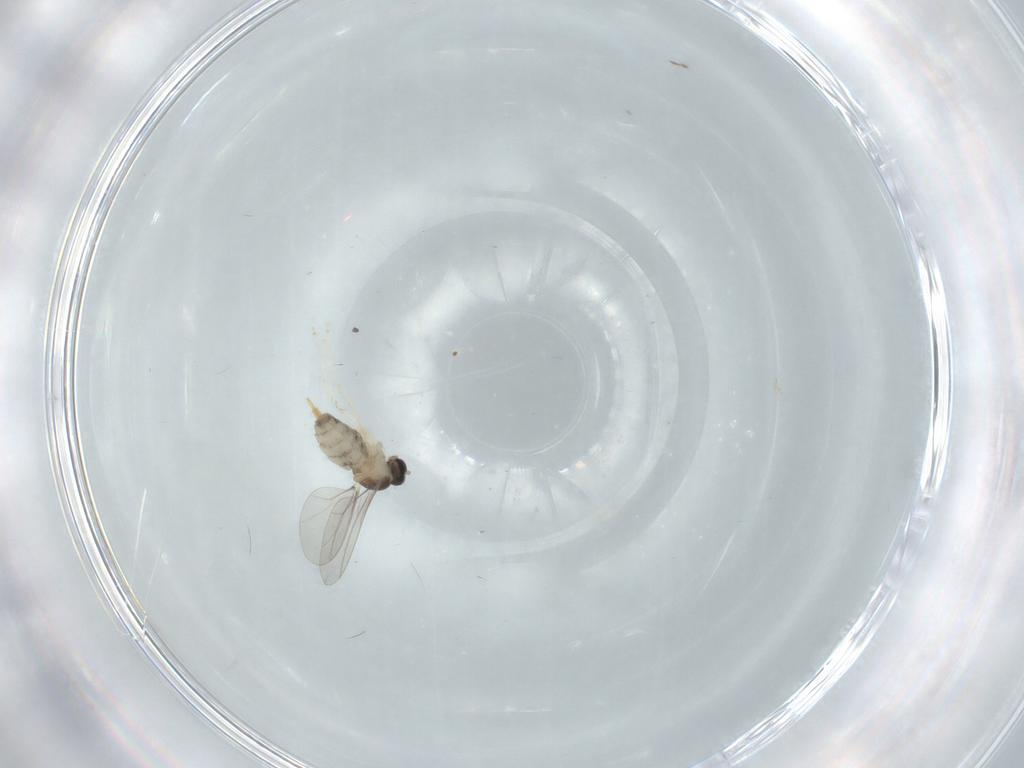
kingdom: Animalia
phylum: Arthropoda
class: Insecta
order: Diptera
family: Cecidomyiidae
